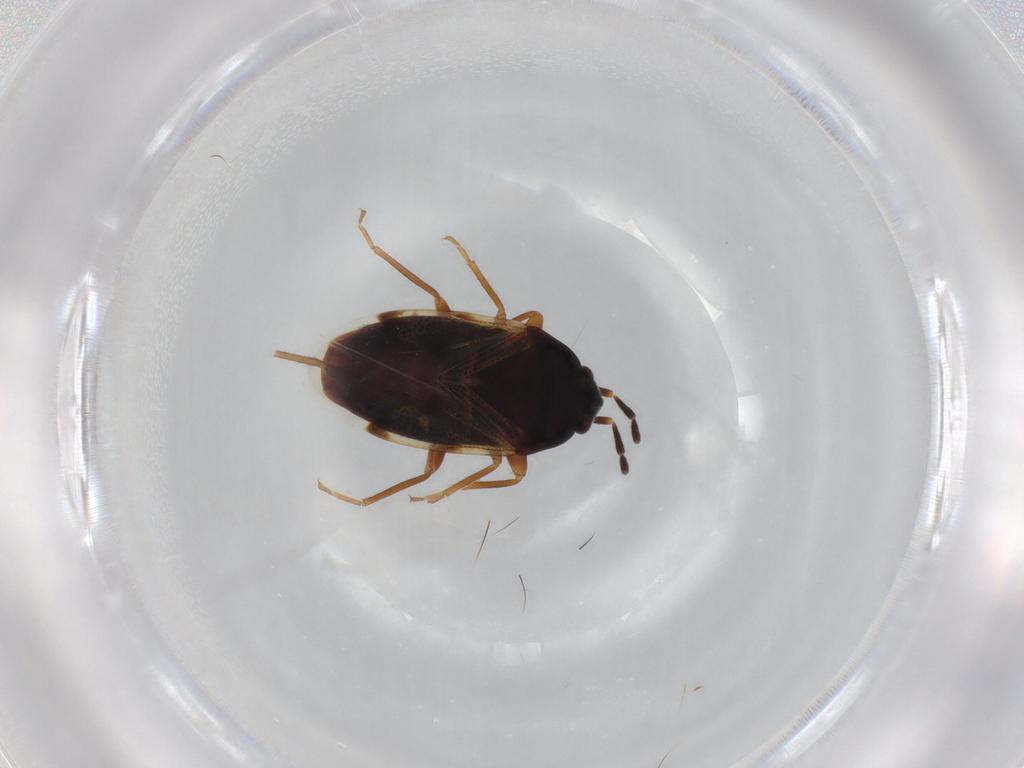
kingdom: Animalia
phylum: Arthropoda
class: Insecta
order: Hemiptera
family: Rhyparochromidae
